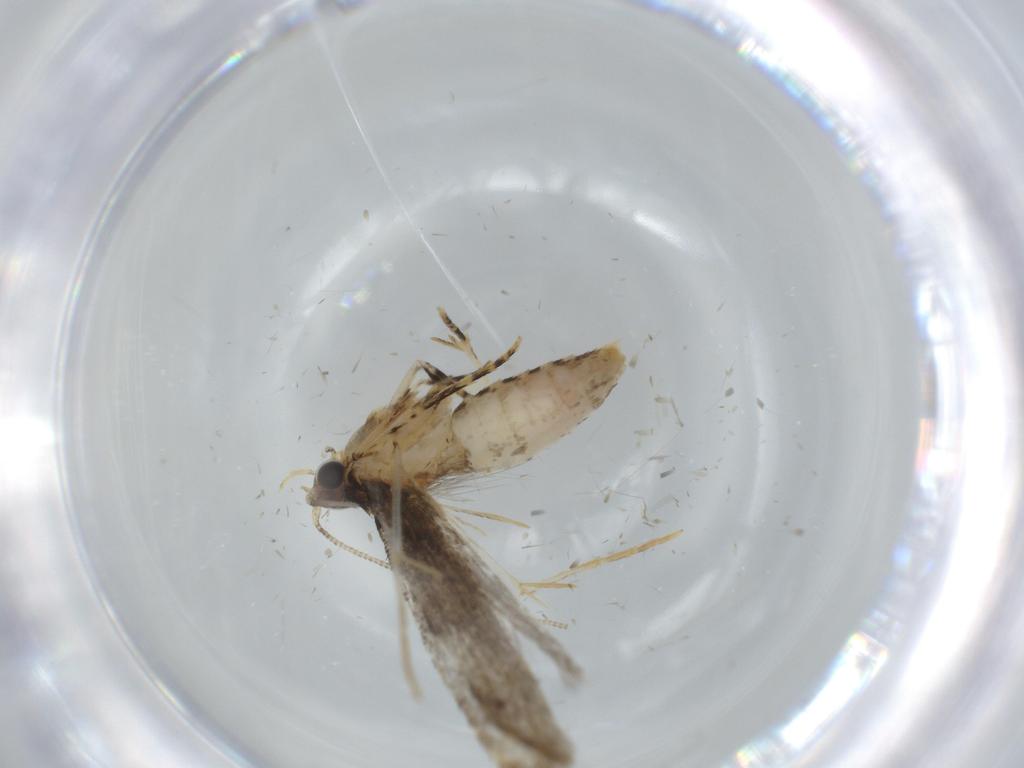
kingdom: Animalia
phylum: Arthropoda
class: Insecta
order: Lepidoptera
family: Tineidae
